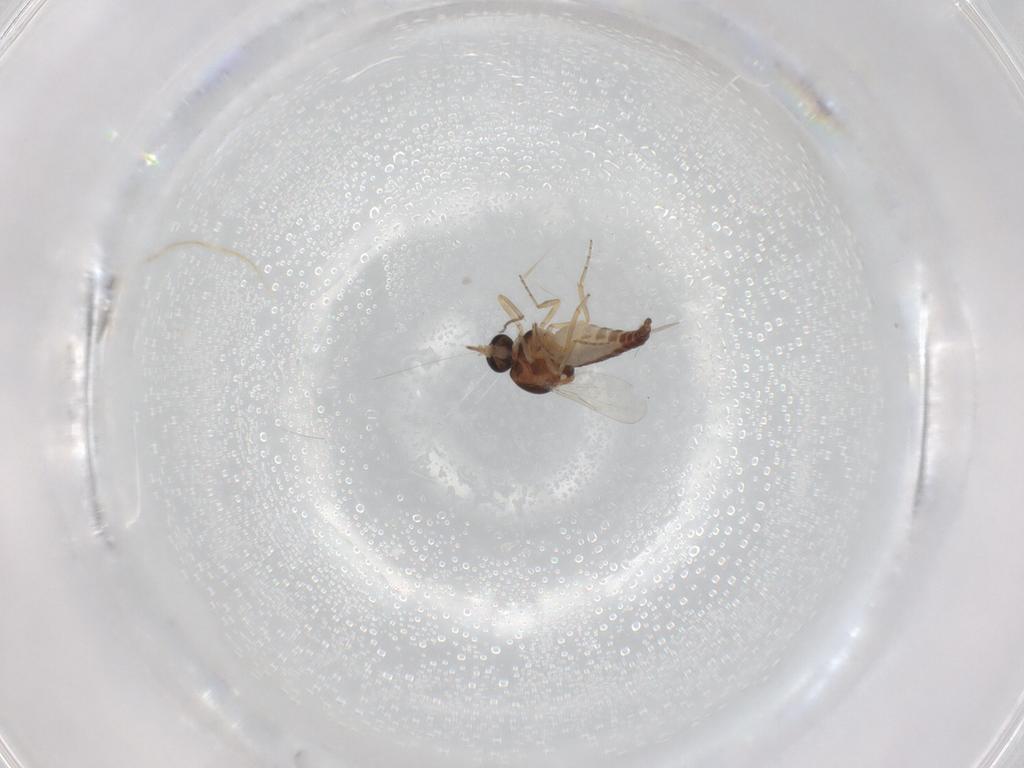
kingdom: Animalia
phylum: Arthropoda
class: Insecta
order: Diptera
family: Ceratopogonidae
